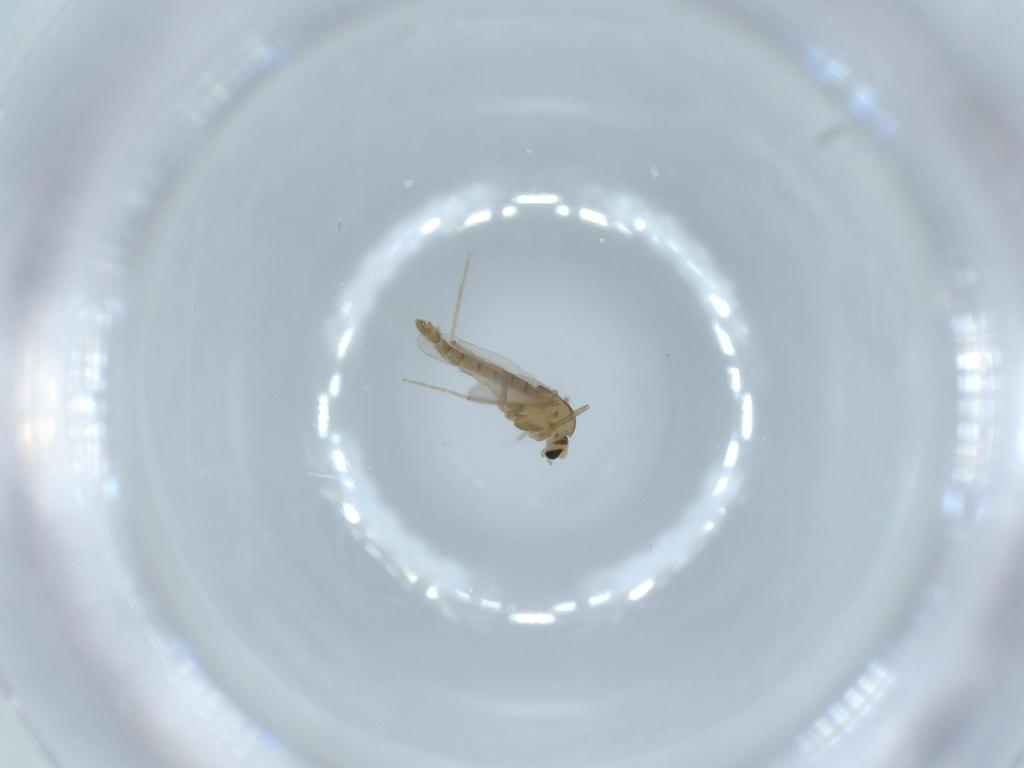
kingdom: Animalia
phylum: Arthropoda
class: Insecta
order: Diptera
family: Chironomidae
